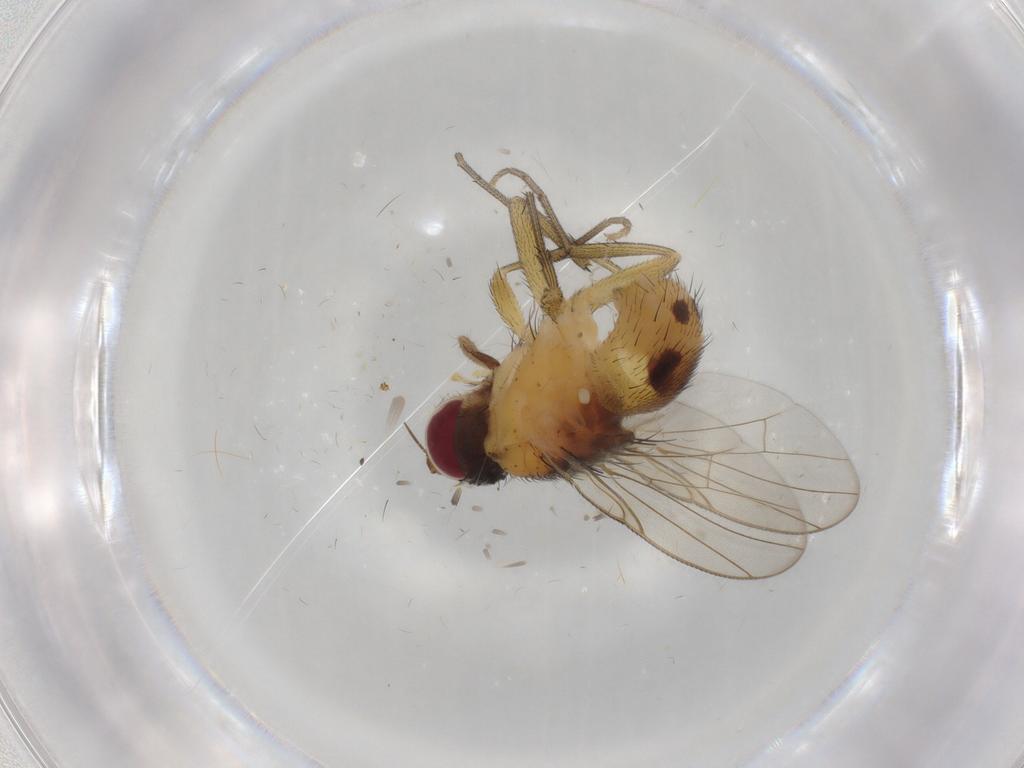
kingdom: Animalia
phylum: Arthropoda
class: Insecta
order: Diptera
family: Muscidae
